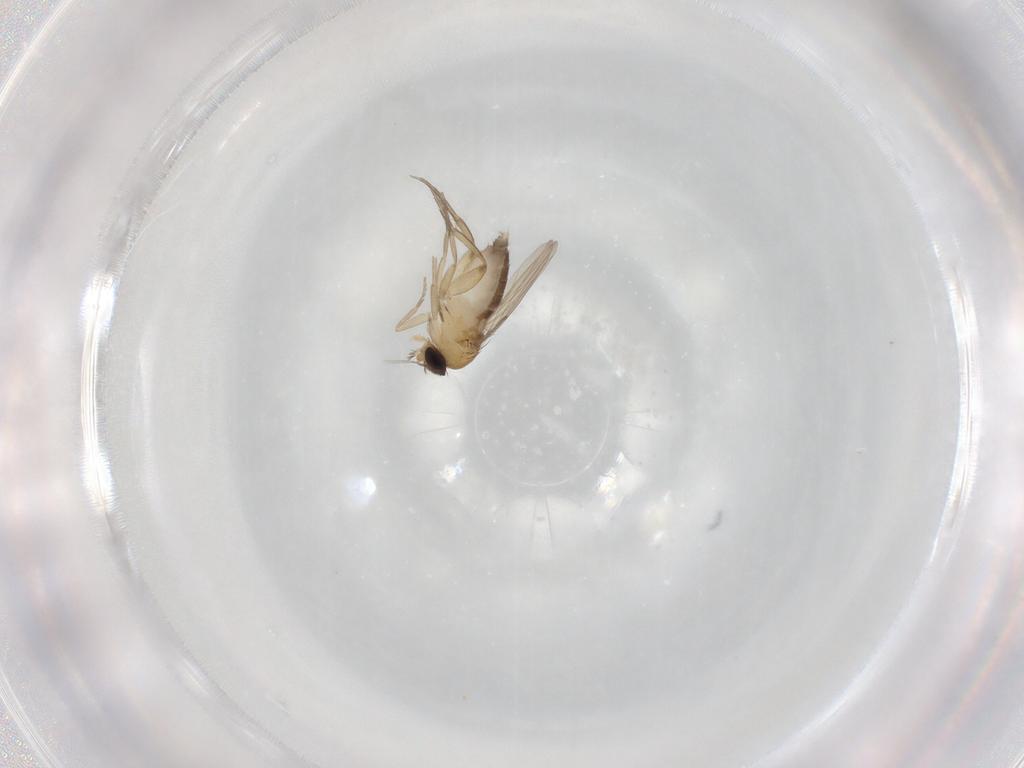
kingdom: Animalia
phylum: Arthropoda
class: Insecta
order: Diptera
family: Phoridae
